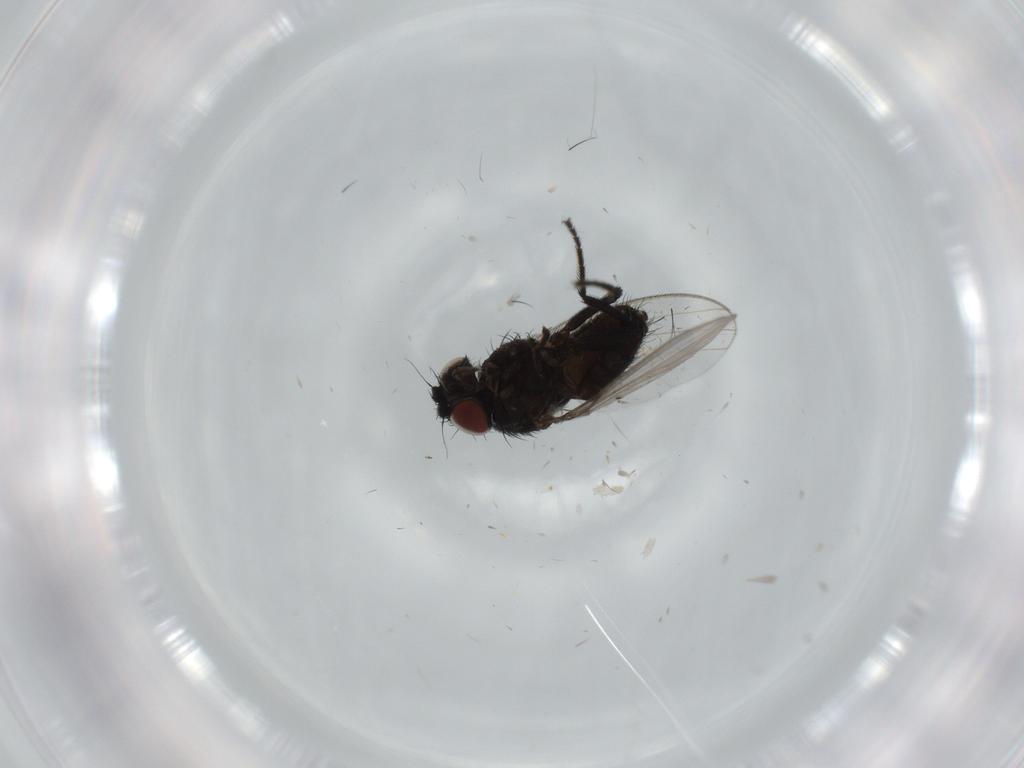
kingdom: Animalia
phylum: Arthropoda
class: Insecta
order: Diptera
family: Milichiidae
